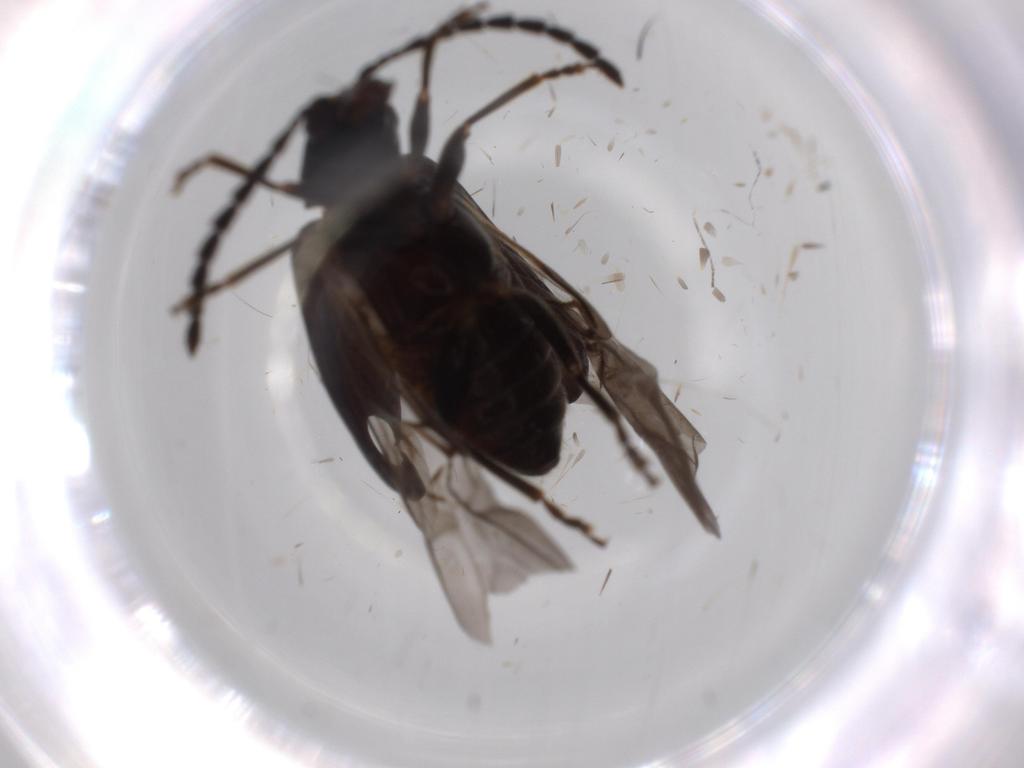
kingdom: Animalia
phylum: Arthropoda
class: Insecta
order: Coleoptera
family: Chrysomelidae
